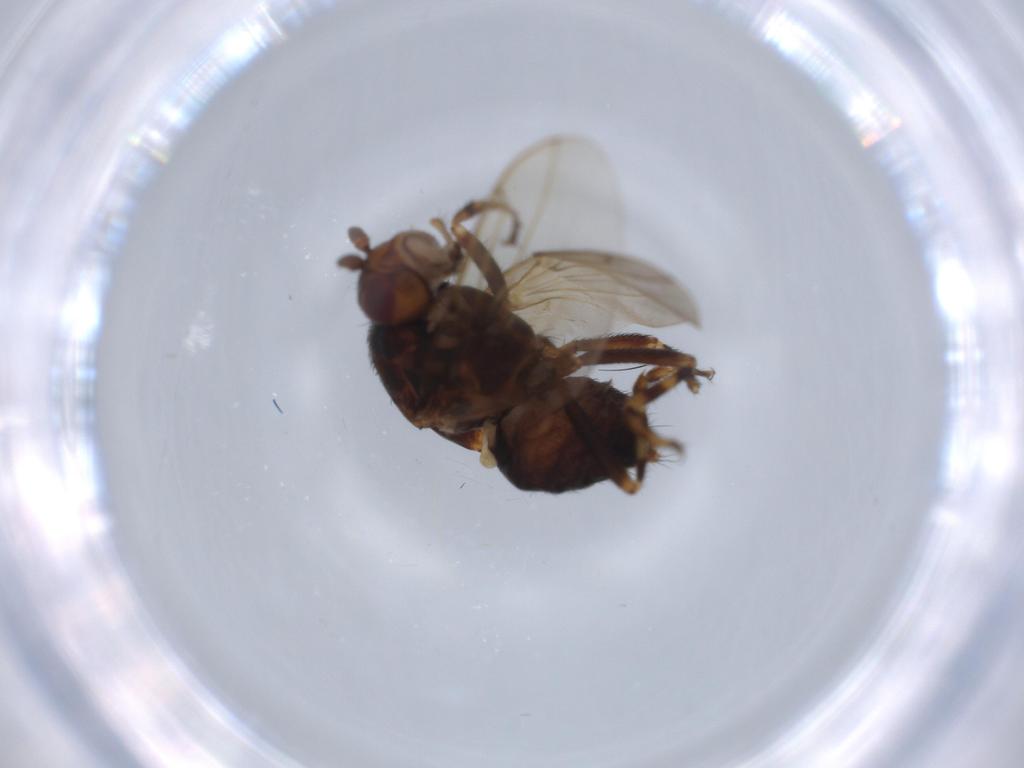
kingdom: Animalia
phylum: Arthropoda
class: Insecta
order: Diptera
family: Sphaeroceridae
